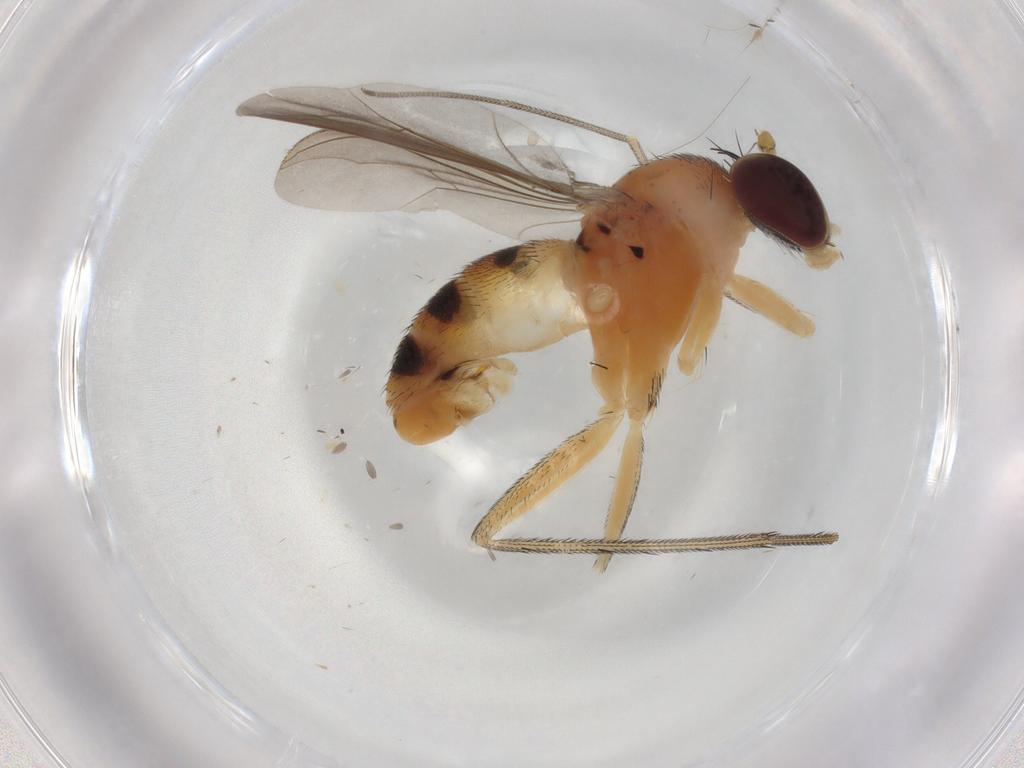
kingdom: Animalia
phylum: Arthropoda
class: Insecta
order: Diptera
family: Dolichopodidae
